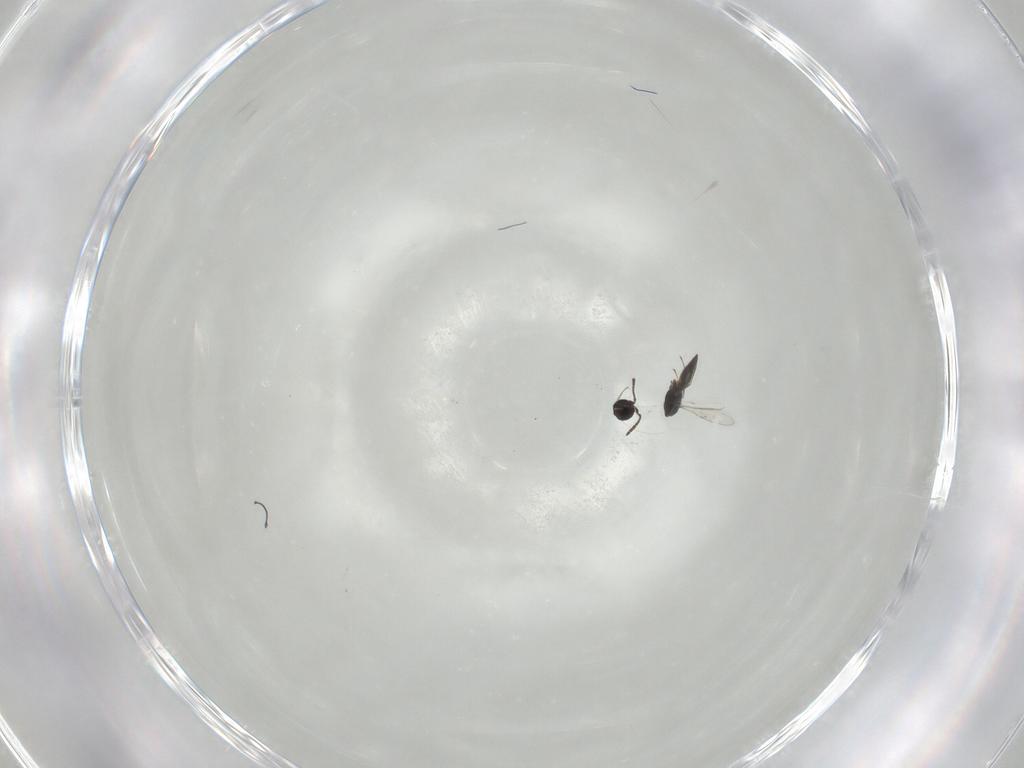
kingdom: Animalia
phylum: Arthropoda
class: Insecta
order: Hymenoptera
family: Scelionidae
